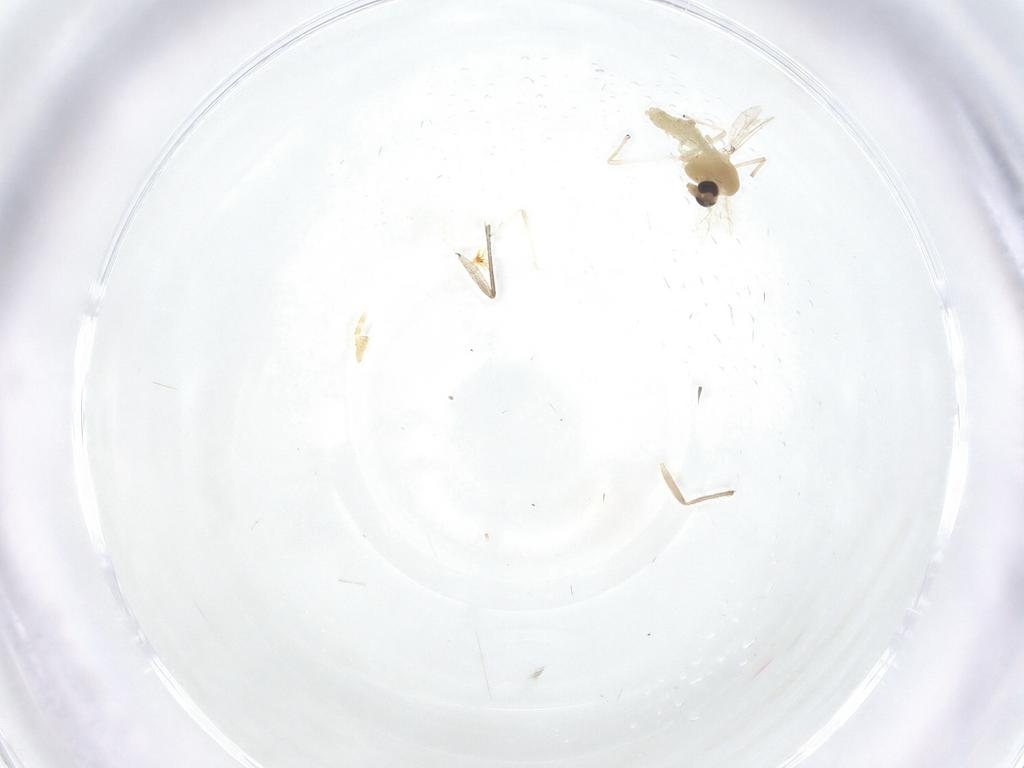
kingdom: Animalia
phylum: Arthropoda
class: Insecta
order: Diptera
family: Chironomidae
